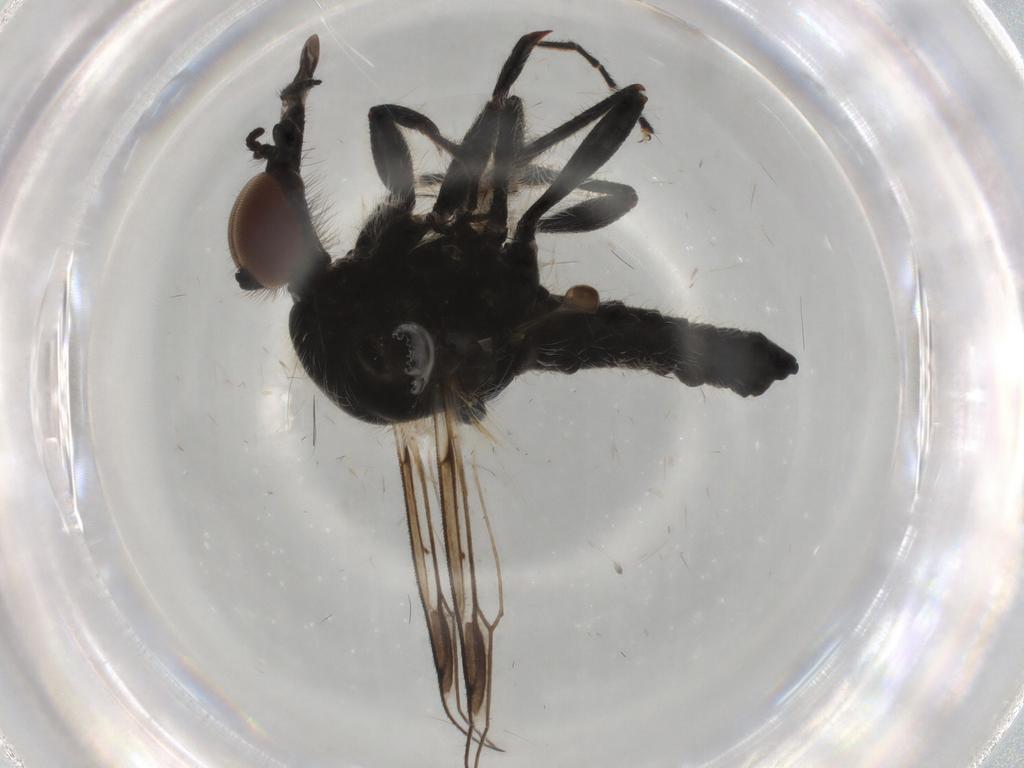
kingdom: Animalia
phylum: Arthropoda
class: Insecta
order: Diptera
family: Bibionidae
